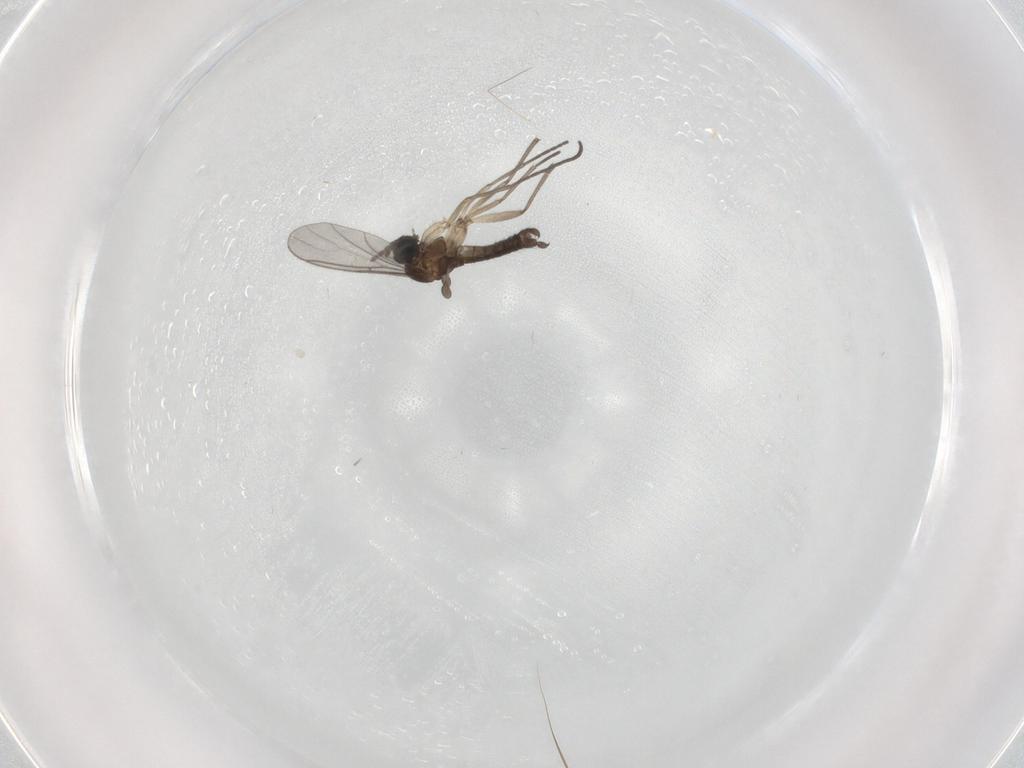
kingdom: Animalia
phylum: Arthropoda
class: Insecta
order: Diptera
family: Sciaridae
